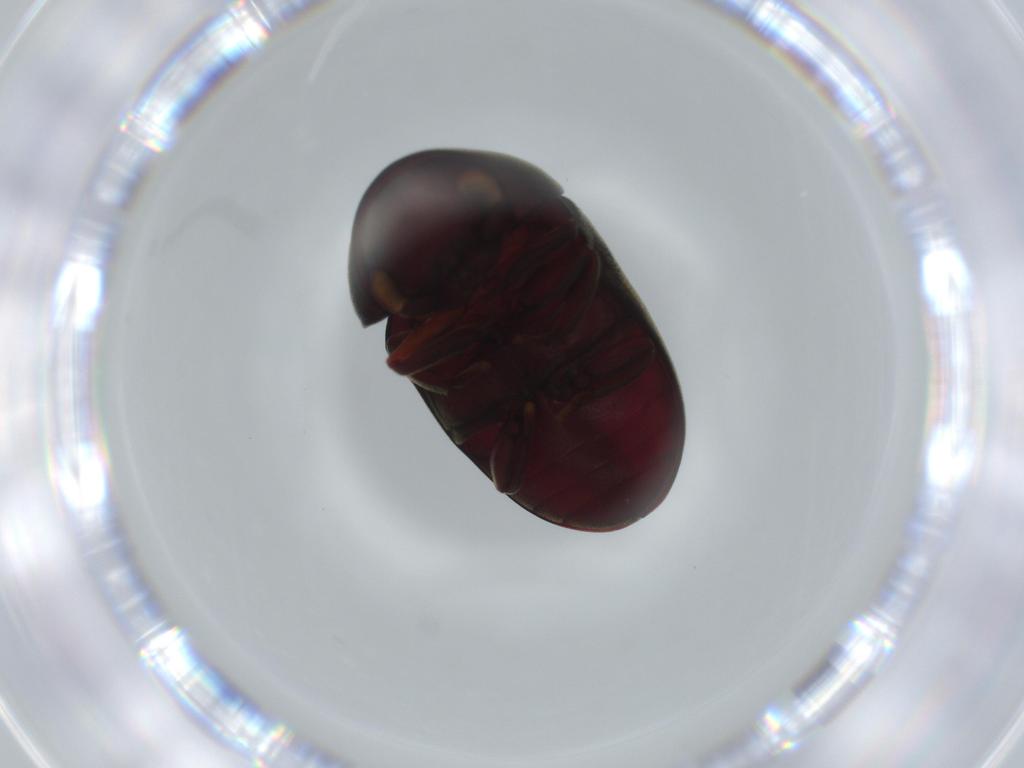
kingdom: Animalia
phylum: Arthropoda
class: Insecta
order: Coleoptera
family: Ptinidae
